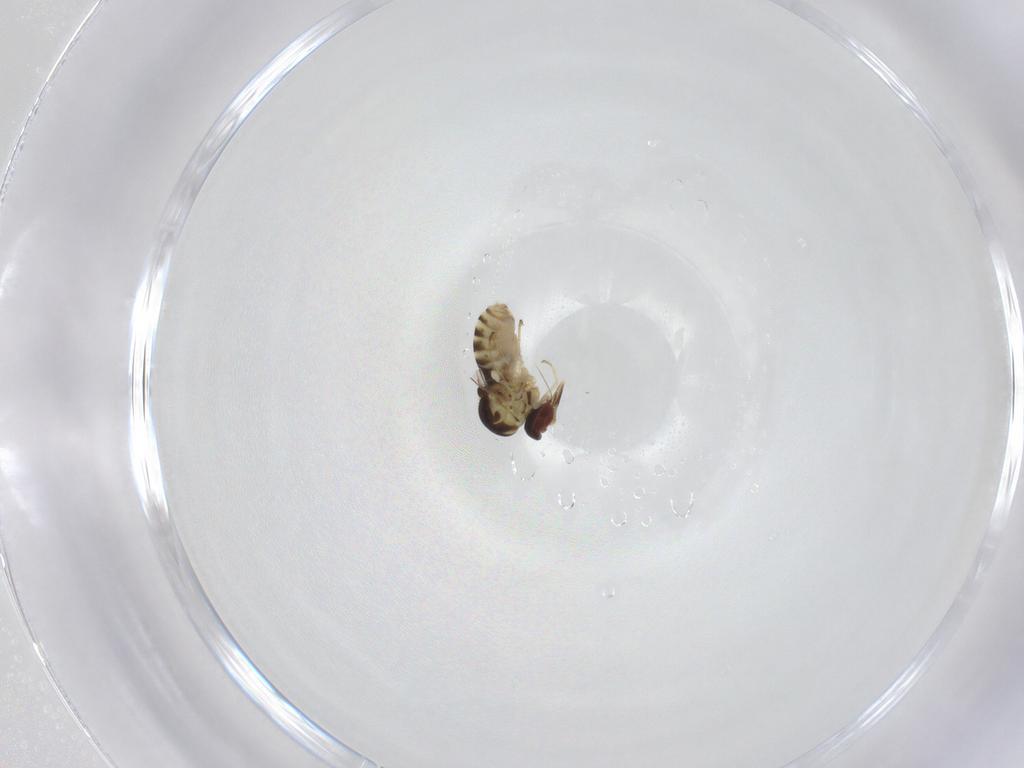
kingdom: Animalia
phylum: Arthropoda
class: Insecta
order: Diptera
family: Mythicomyiidae
